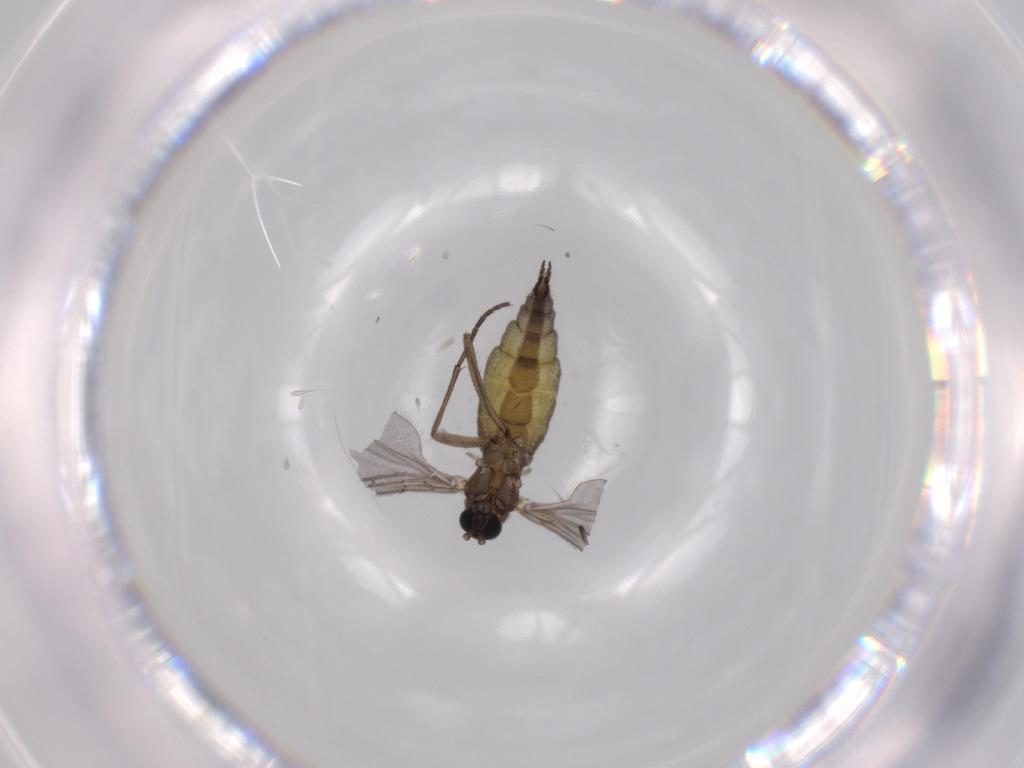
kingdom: Animalia
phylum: Arthropoda
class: Insecta
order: Diptera
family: Sciaridae
